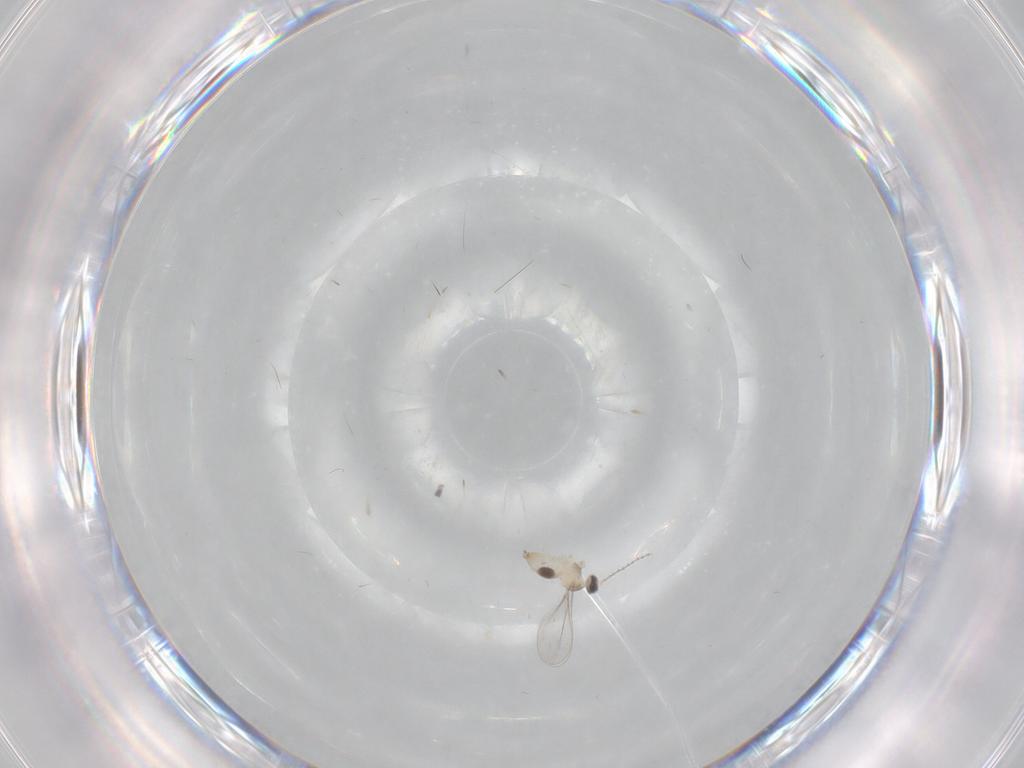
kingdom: Animalia
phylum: Arthropoda
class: Insecta
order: Diptera
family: Cecidomyiidae
